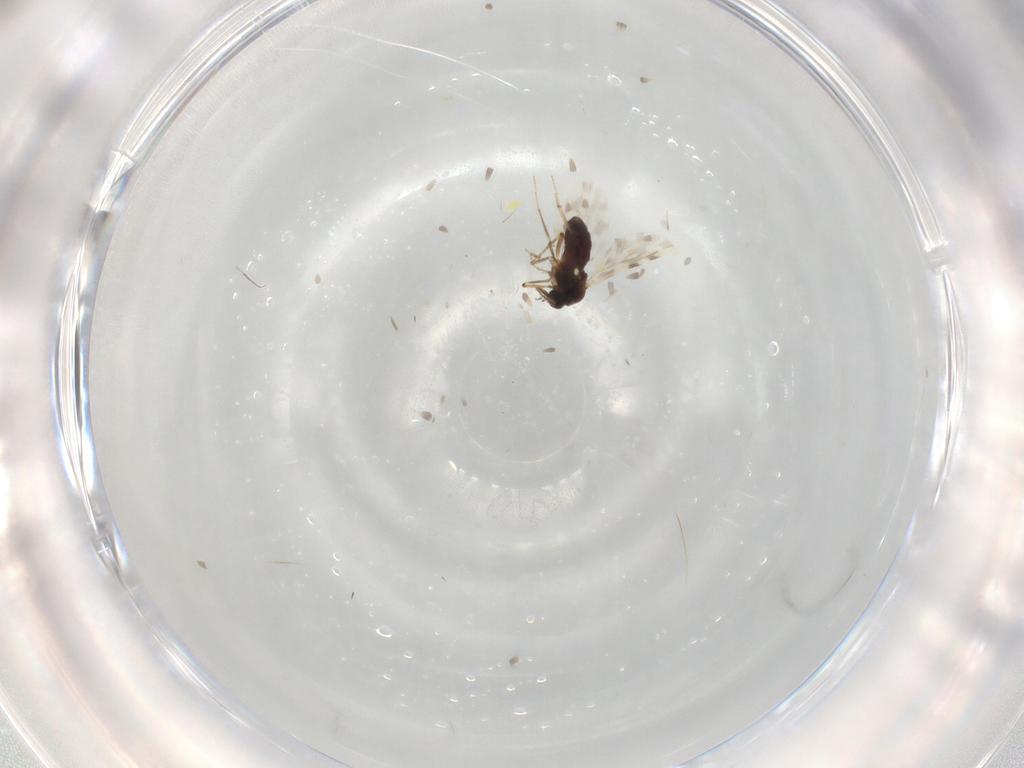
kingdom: Animalia
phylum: Arthropoda
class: Insecta
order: Diptera
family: Ceratopogonidae
